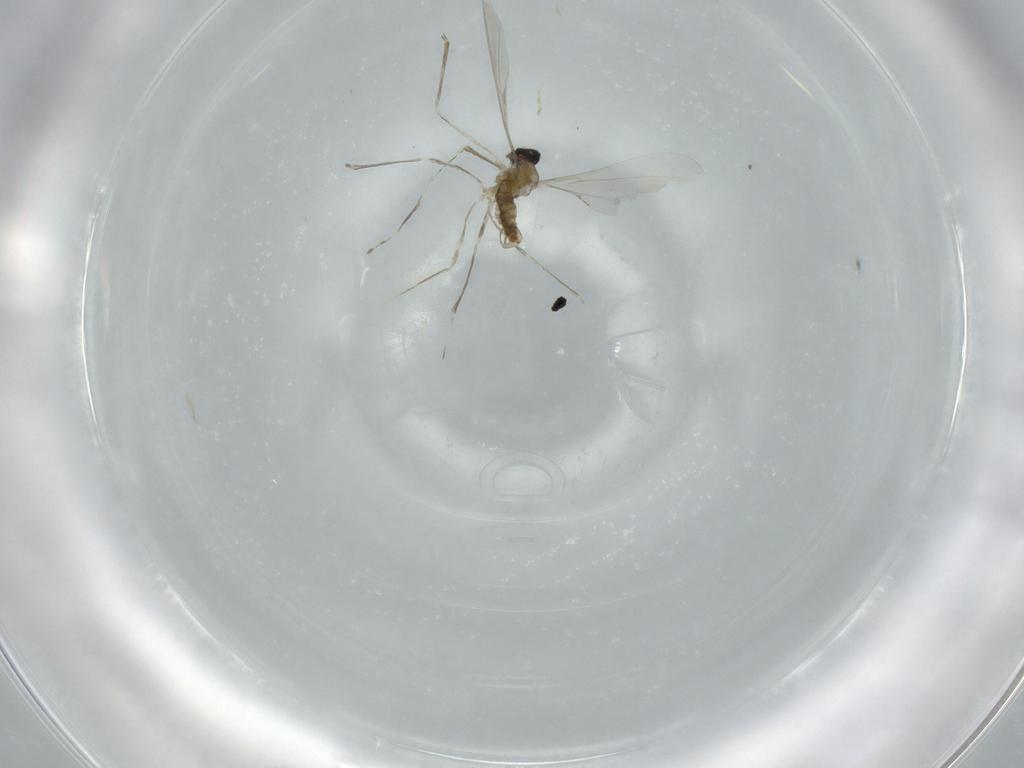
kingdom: Animalia
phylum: Arthropoda
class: Insecta
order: Diptera
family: Cecidomyiidae
